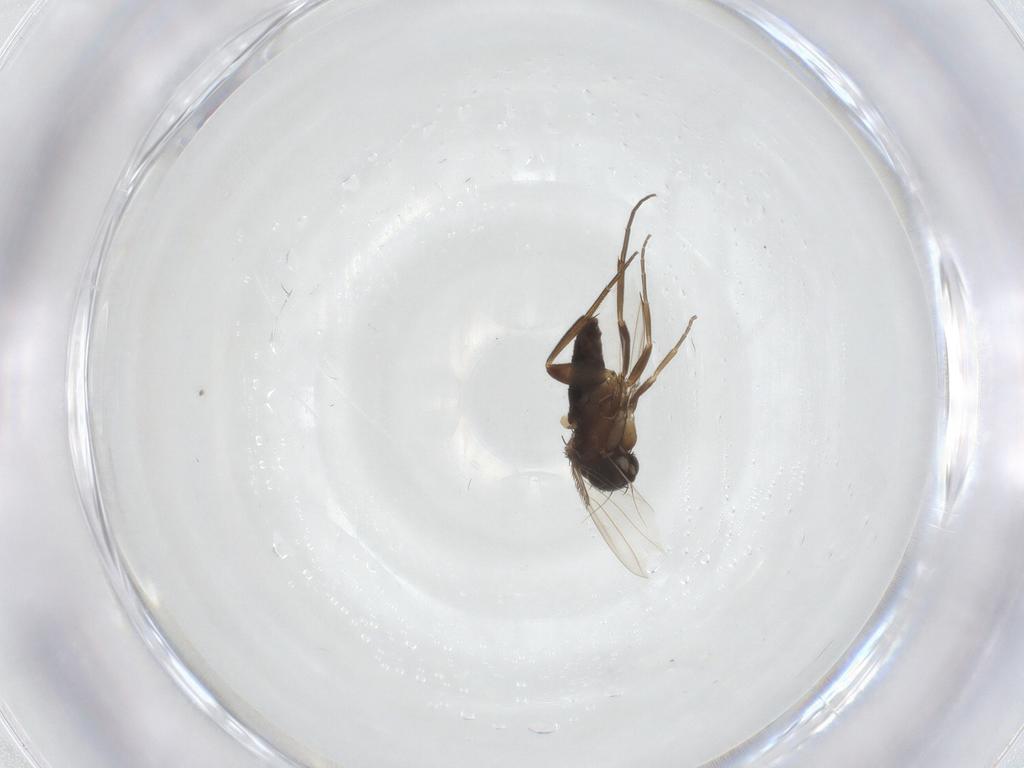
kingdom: Animalia
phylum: Arthropoda
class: Insecta
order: Diptera
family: Phoridae
